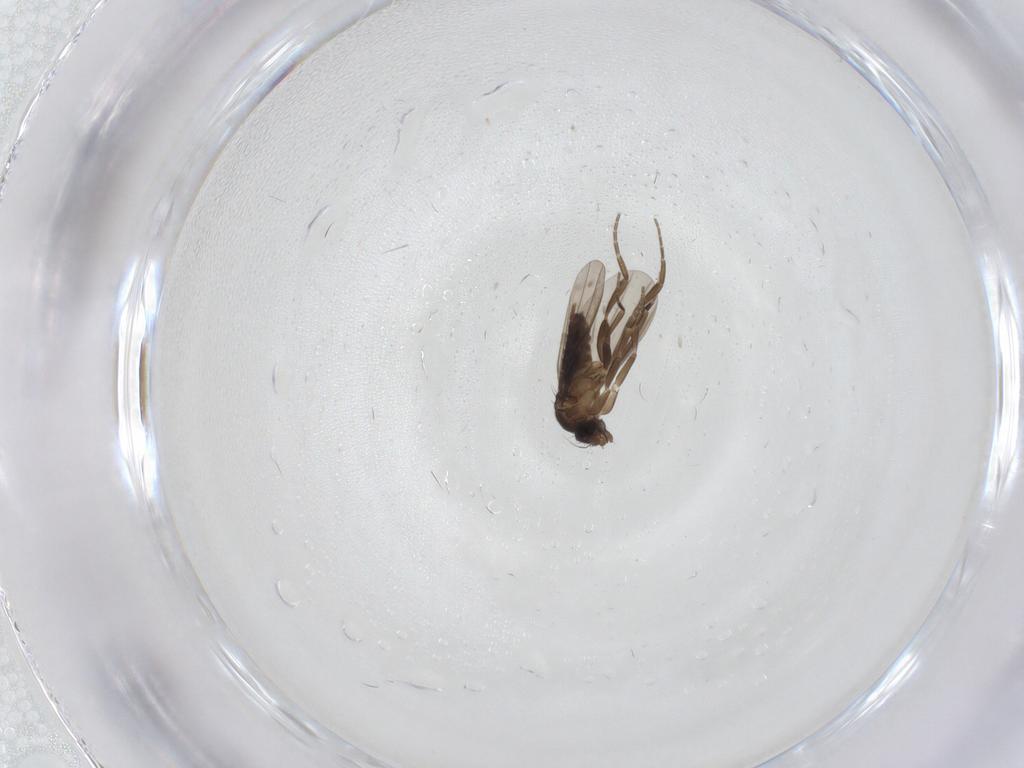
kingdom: Animalia
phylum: Arthropoda
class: Insecta
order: Diptera
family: Phoridae
